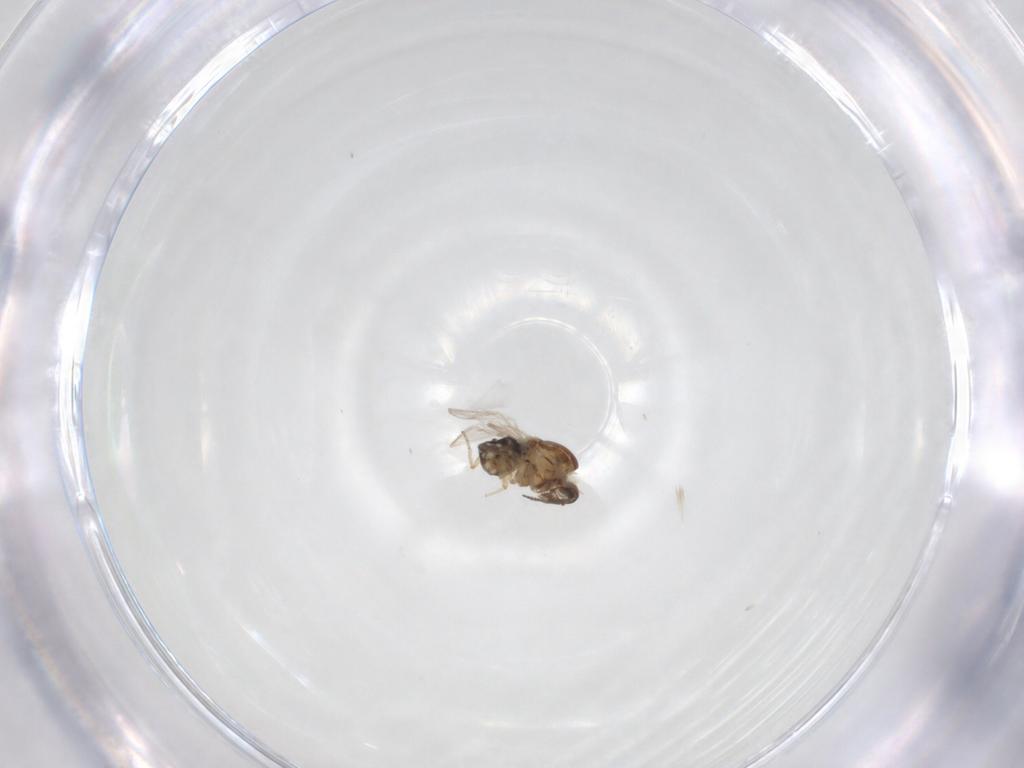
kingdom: Animalia
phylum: Arthropoda
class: Insecta
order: Diptera
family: Ceratopogonidae
